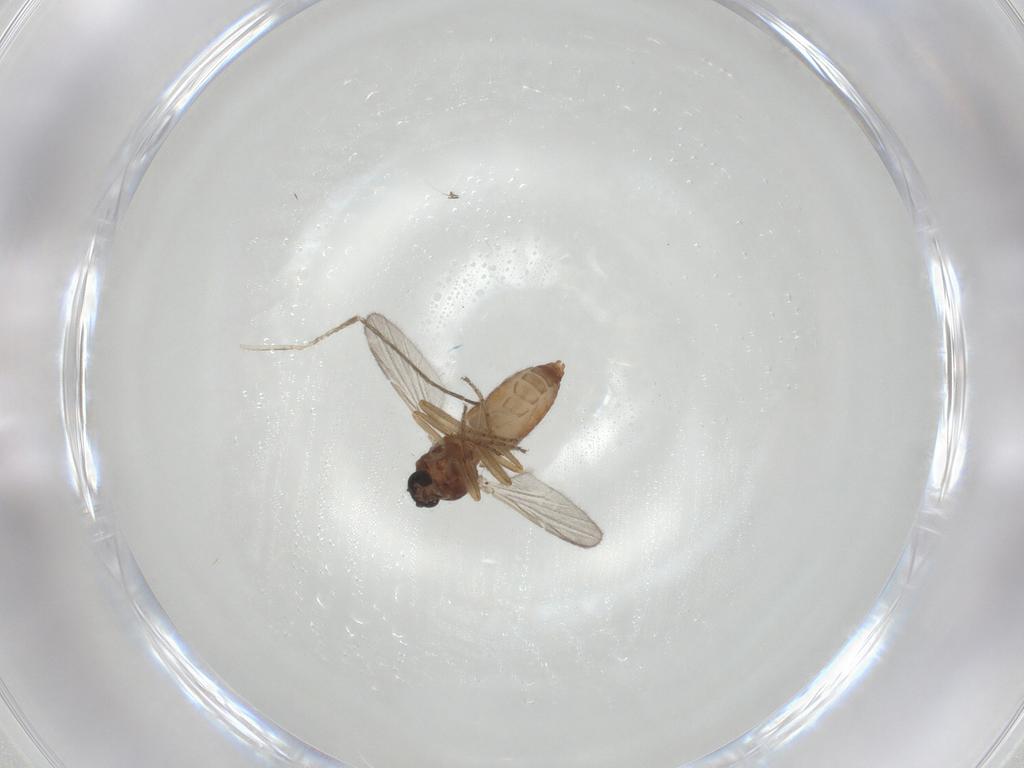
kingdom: Animalia
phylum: Arthropoda
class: Insecta
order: Diptera
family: Ceratopogonidae
